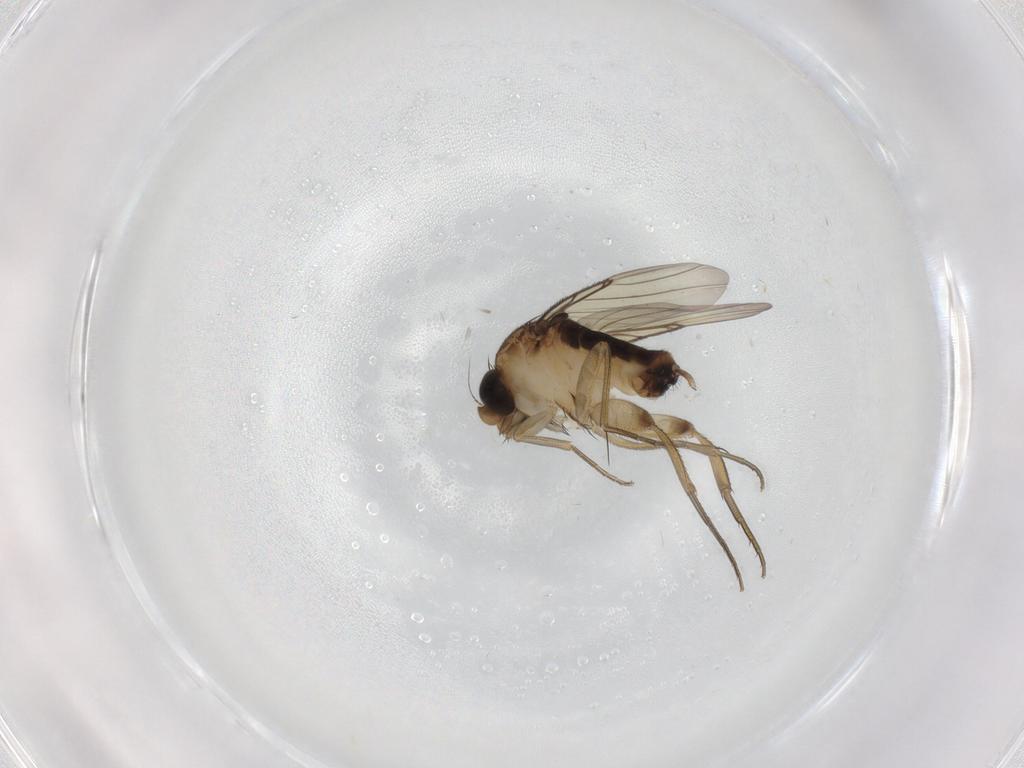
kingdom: Animalia
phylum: Arthropoda
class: Insecta
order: Diptera
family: Phoridae
